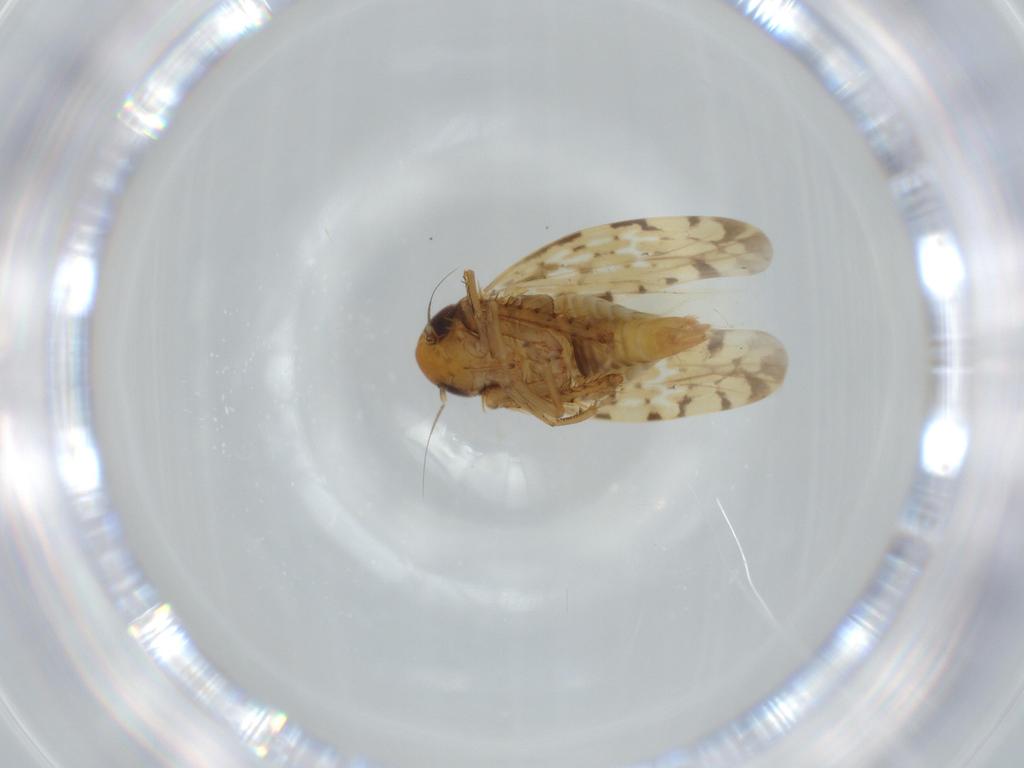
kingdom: Animalia
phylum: Arthropoda
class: Insecta
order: Hemiptera
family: Cicadellidae
